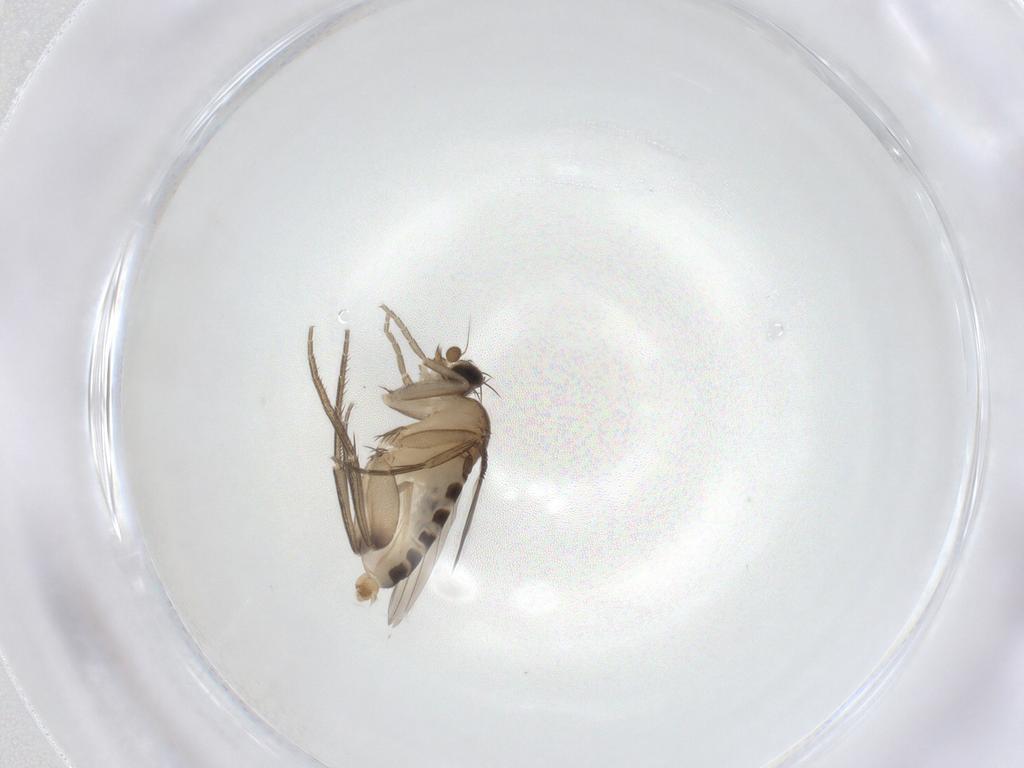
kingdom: Animalia
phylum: Arthropoda
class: Insecta
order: Diptera
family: Phoridae
